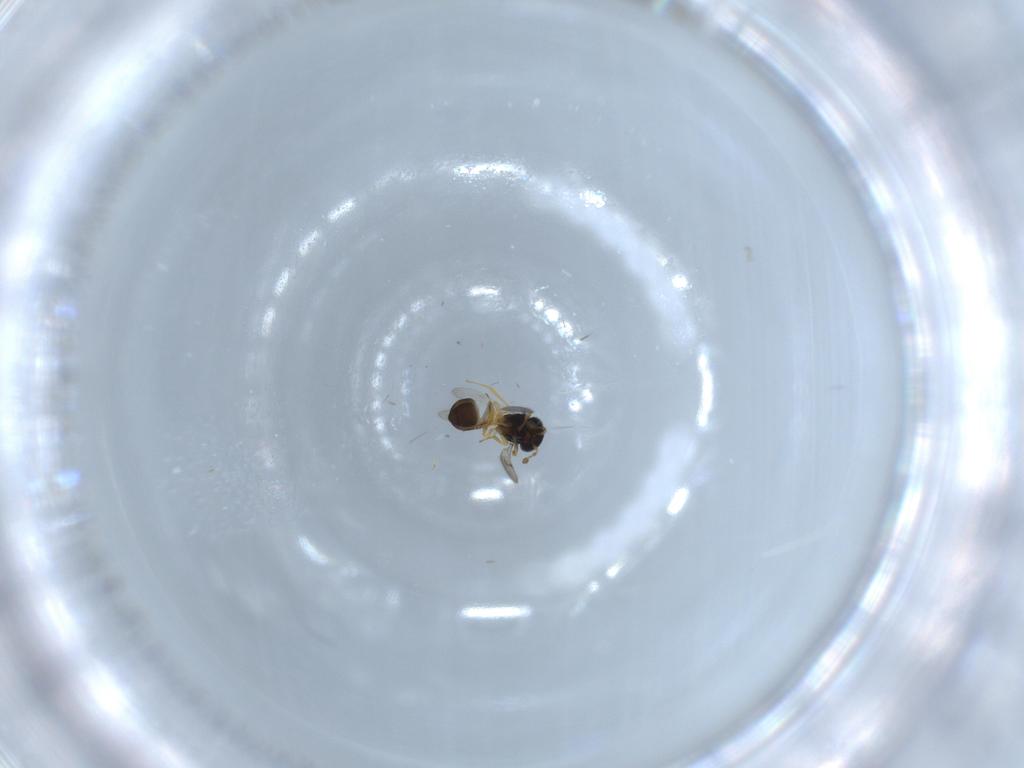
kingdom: Animalia
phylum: Arthropoda
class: Insecta
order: Hymenoptera
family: Scelionidae
